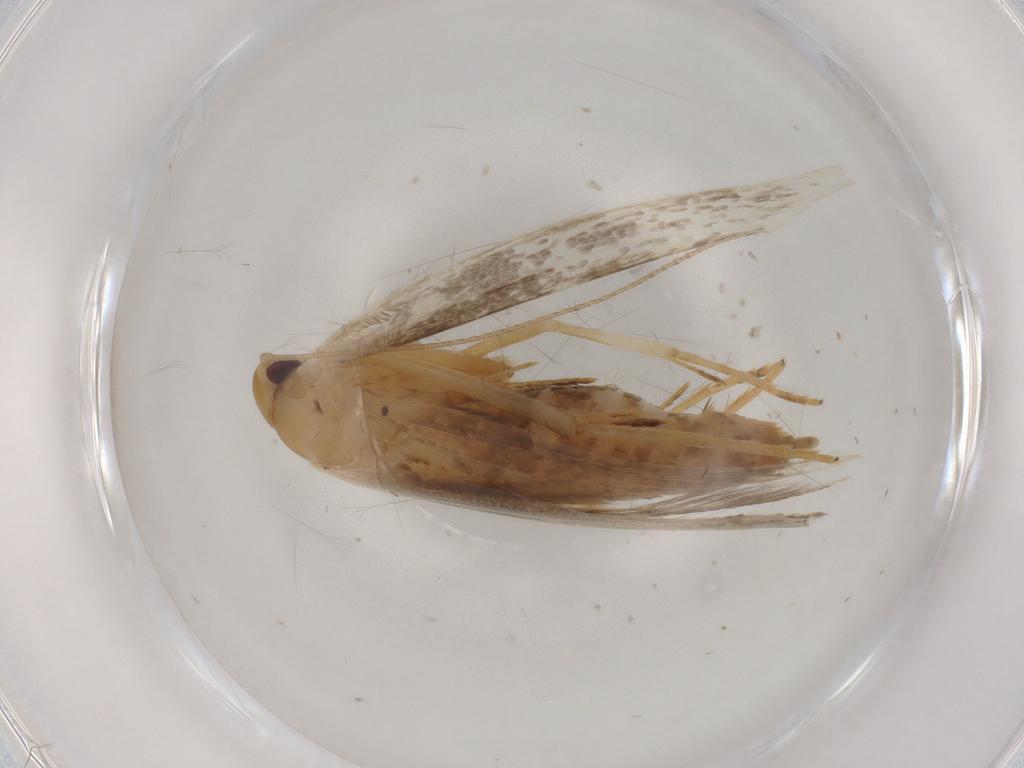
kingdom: Animalia
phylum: Arthropoda
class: Insecta
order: Lepidoptera
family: Cosmopterigidae
